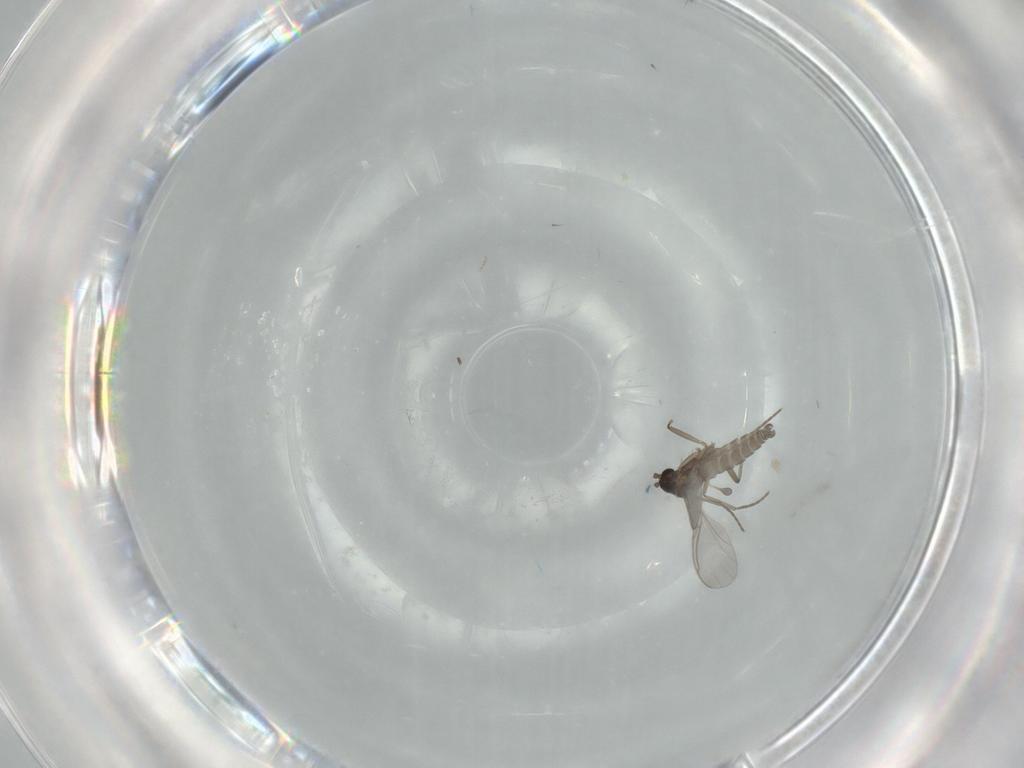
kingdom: Animalia
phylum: Arthropoda
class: Insecta
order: Diptera
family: Sciaridae
